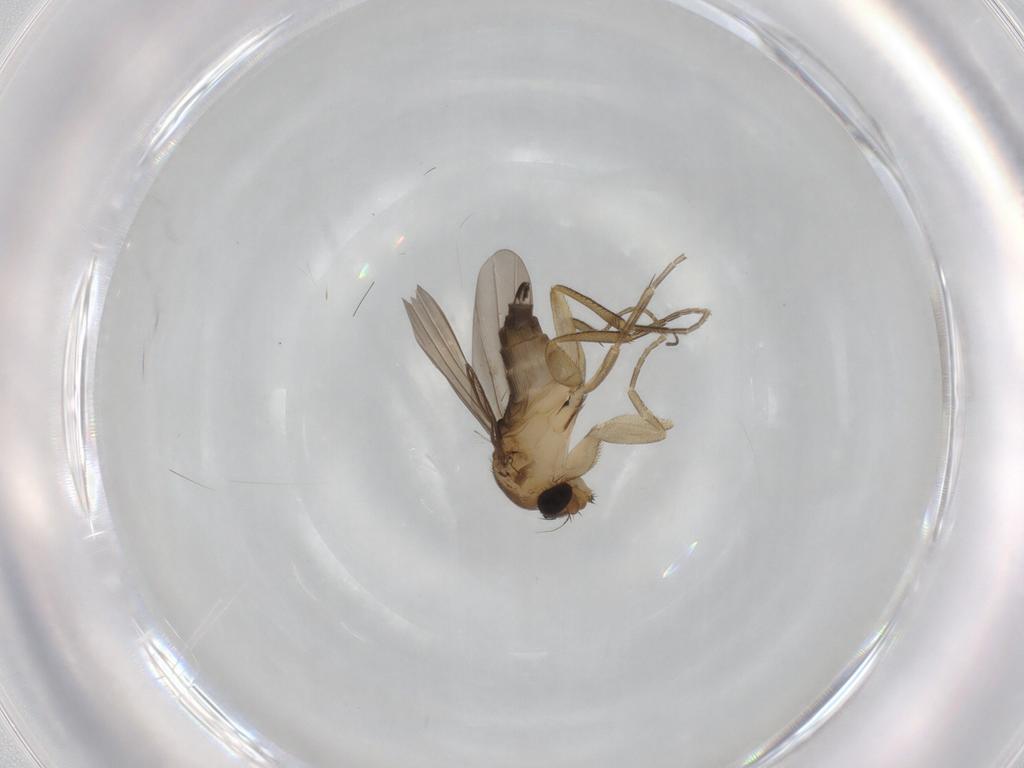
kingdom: Animalia
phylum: Arthropoda
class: Insecta
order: Diptera
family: Phoridae
